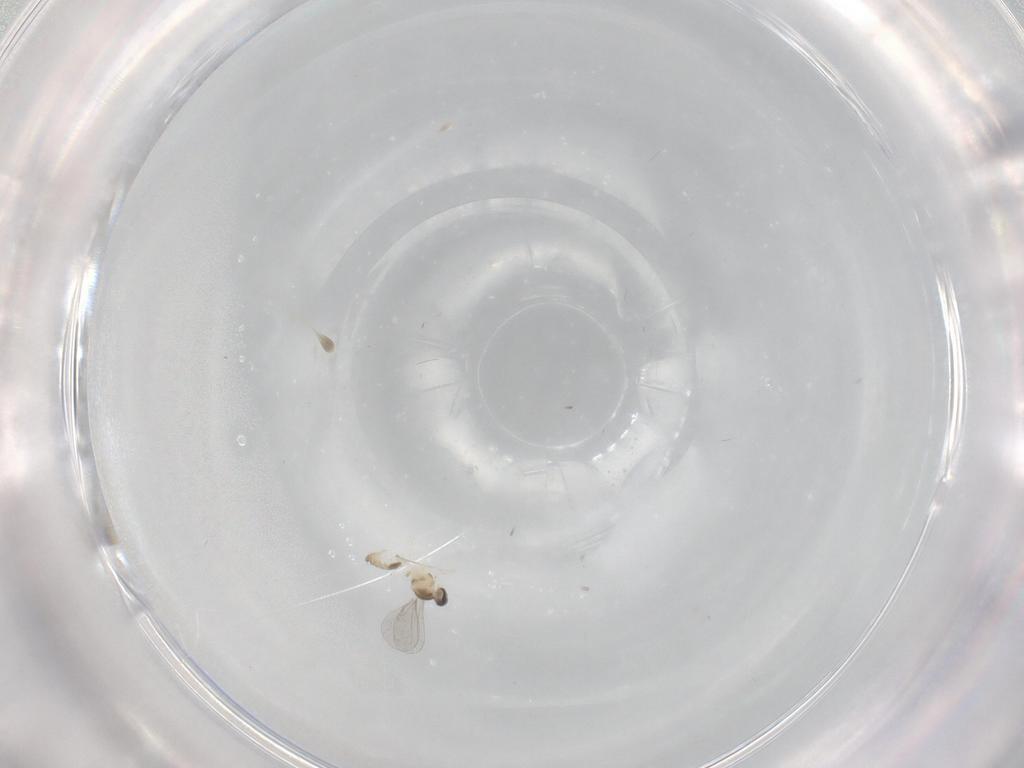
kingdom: Animalia
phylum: Arthropoda
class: Insecta
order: Diptera
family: Cecidomyiidae
